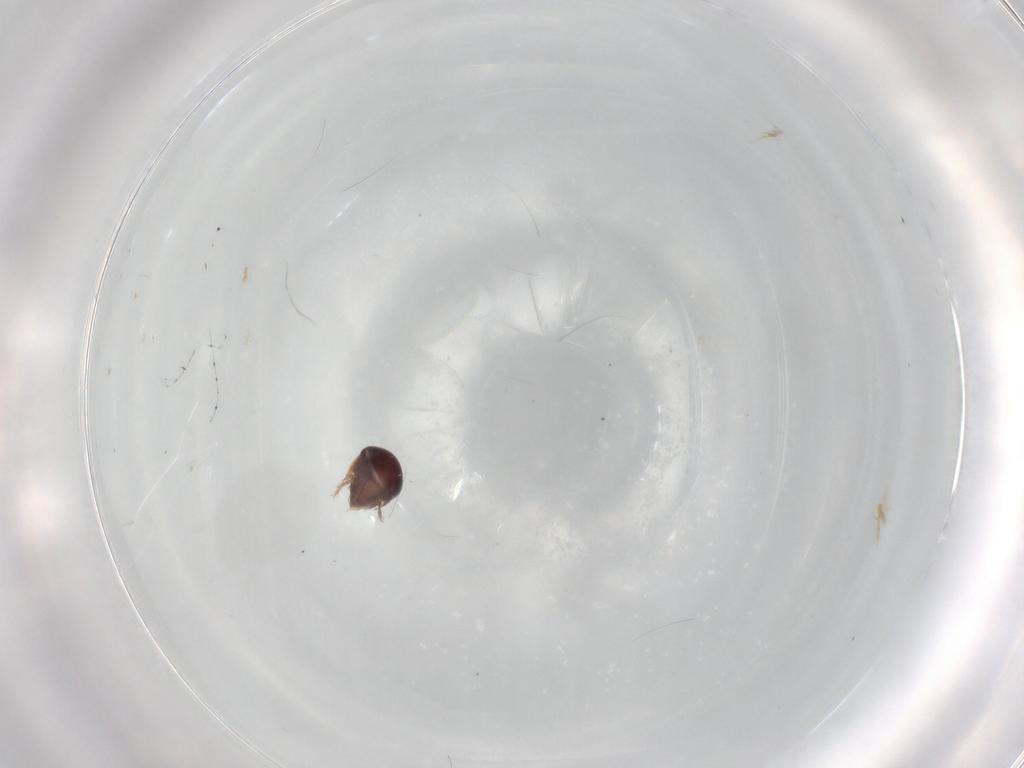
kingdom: Animalia
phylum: Arthropoda
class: Arachnida
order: Sarcoptiformes
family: Humerobatidae
